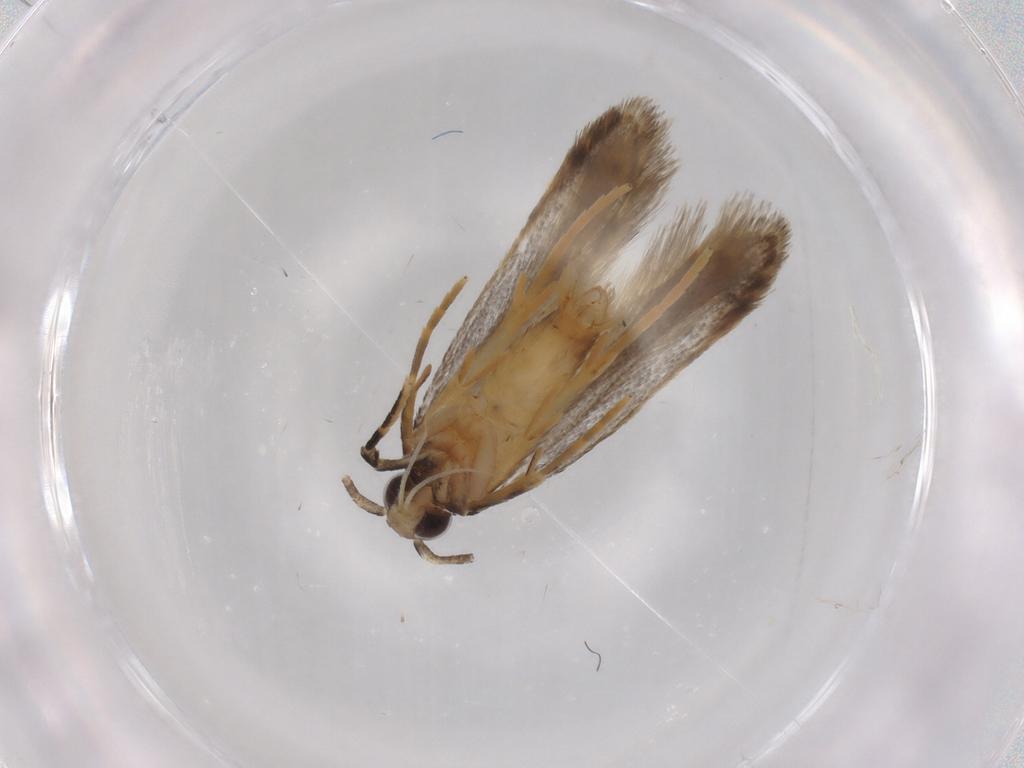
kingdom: Animalia
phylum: Arthropoda
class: Insecta
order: Lepidoptera
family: Autostichidae
